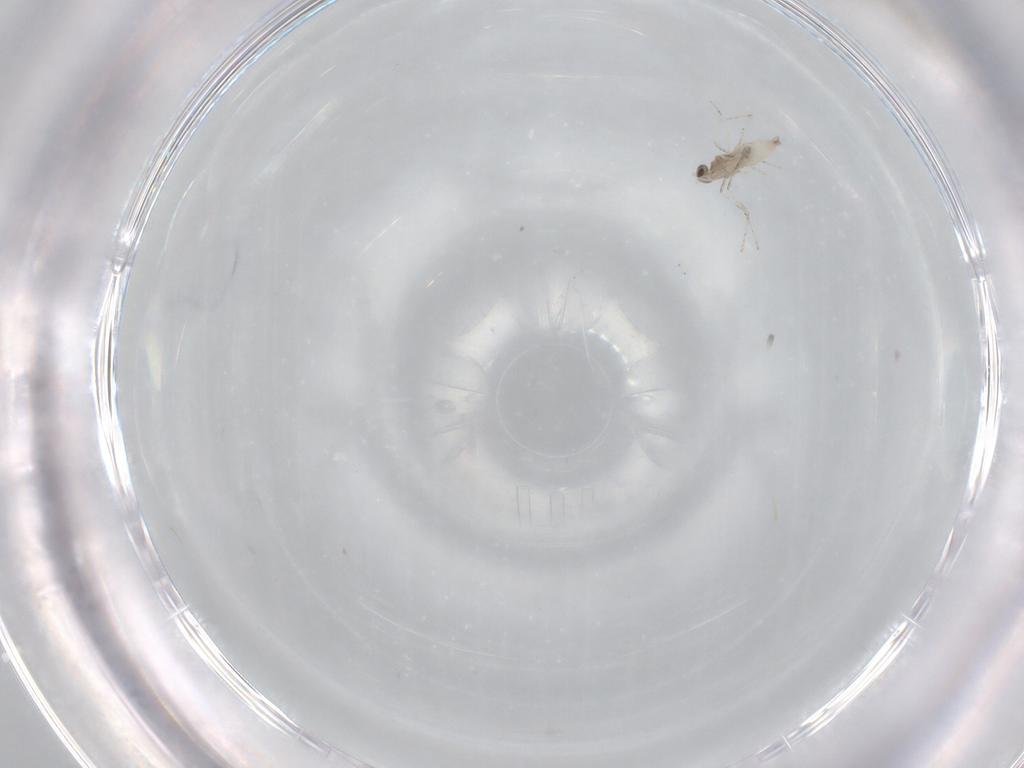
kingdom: Animalia
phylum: Arthropoda
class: Insecta
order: Diptera
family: Cecidomyiidae
